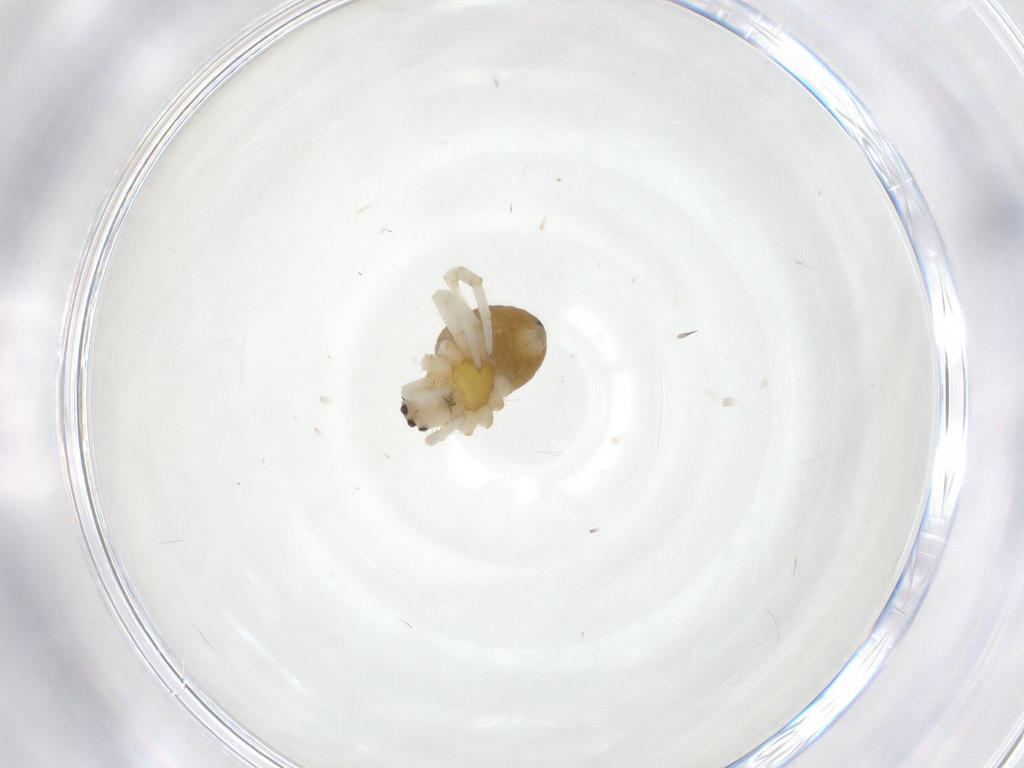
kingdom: Animalia
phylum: Arthropoda
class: Arachnida
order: Araneae
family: Araneidae
